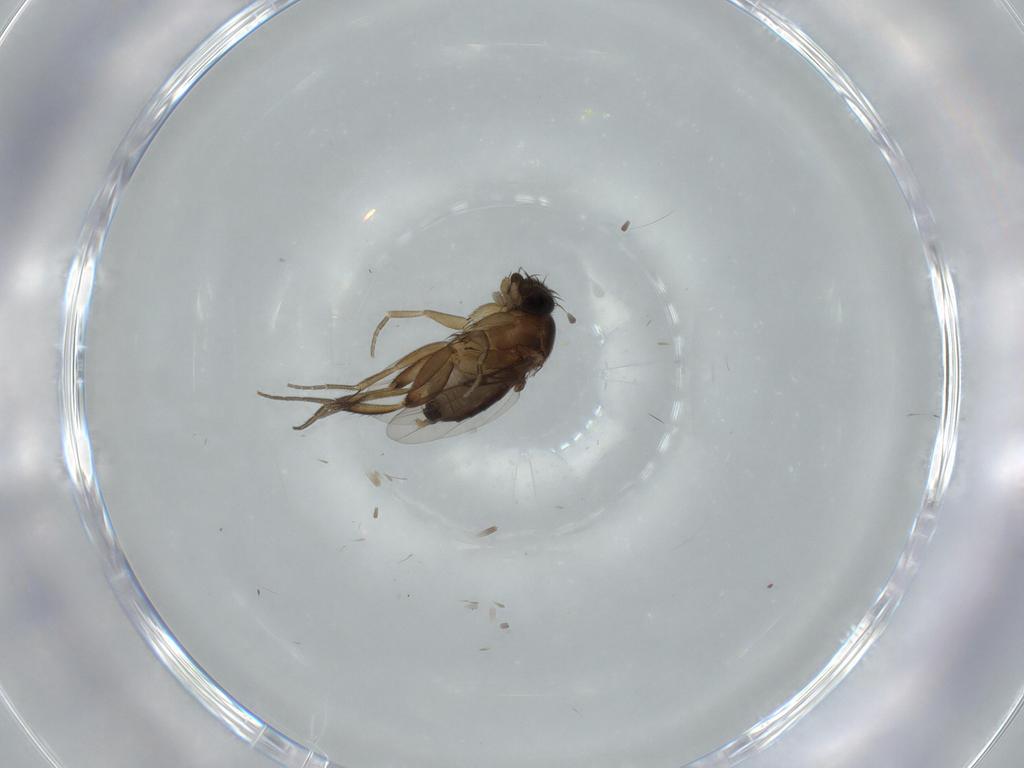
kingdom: Animalia
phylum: Arthropoda
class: Insecta
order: Diptera
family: Phoridae
